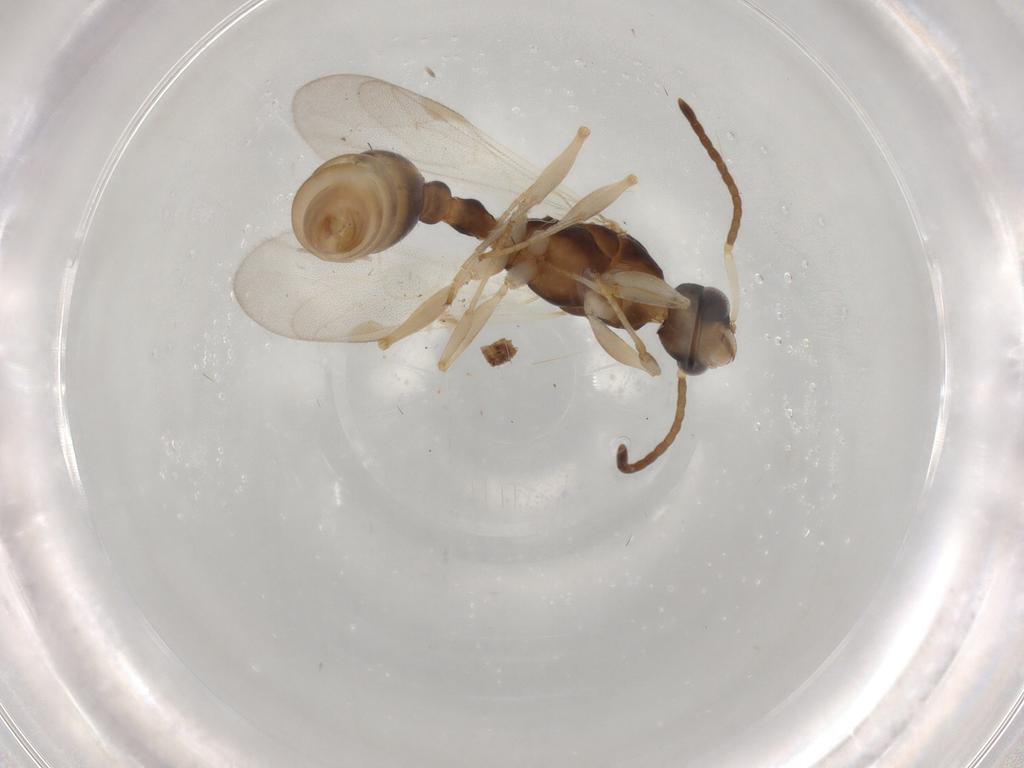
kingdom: Animalia
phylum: Arthropoda
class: Insecta
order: Hymenoptera
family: Formicidae
